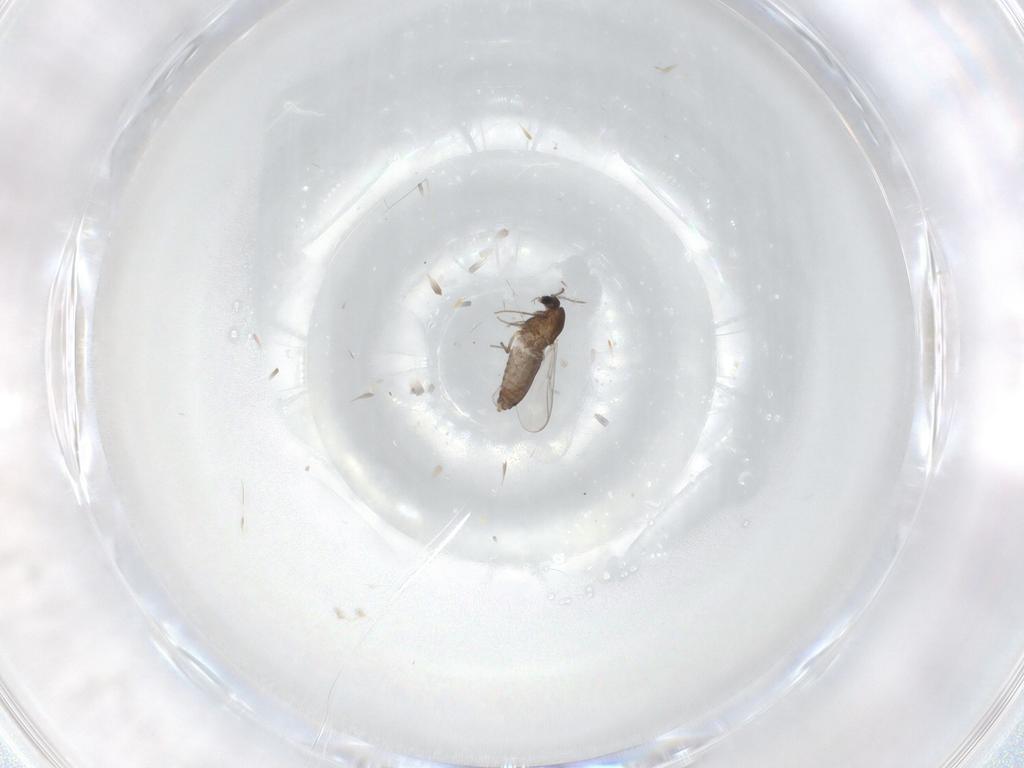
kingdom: Animalia
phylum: Arthropoda
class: Insecta
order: Diptera
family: Chironomidae
